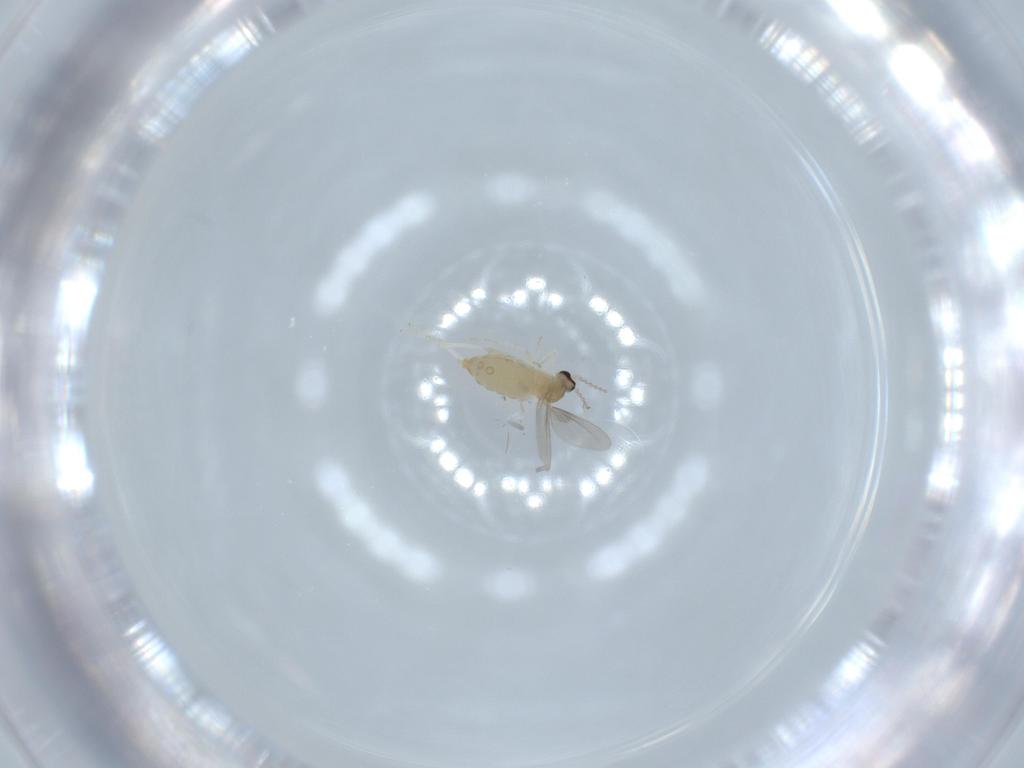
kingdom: Animalia
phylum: Arthropoda
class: Insecta
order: Diptera
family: Cecidomyiidae
